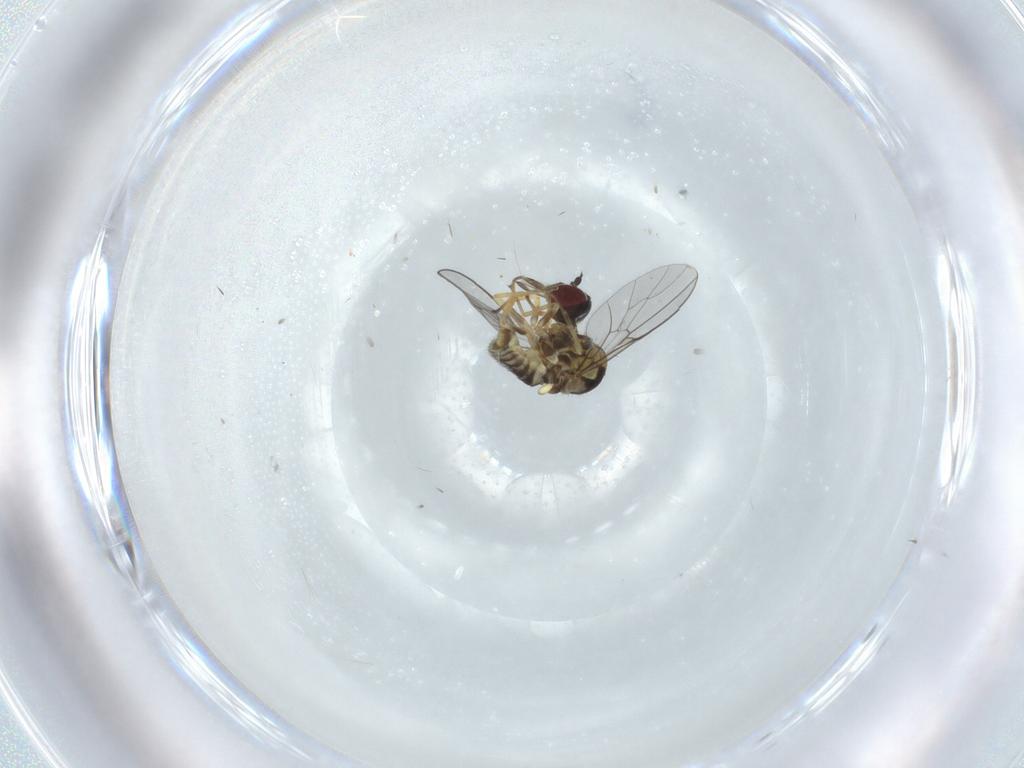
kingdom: Animalia
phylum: Arthropoda
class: Insecta
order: Diptera
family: Bombyliidae
